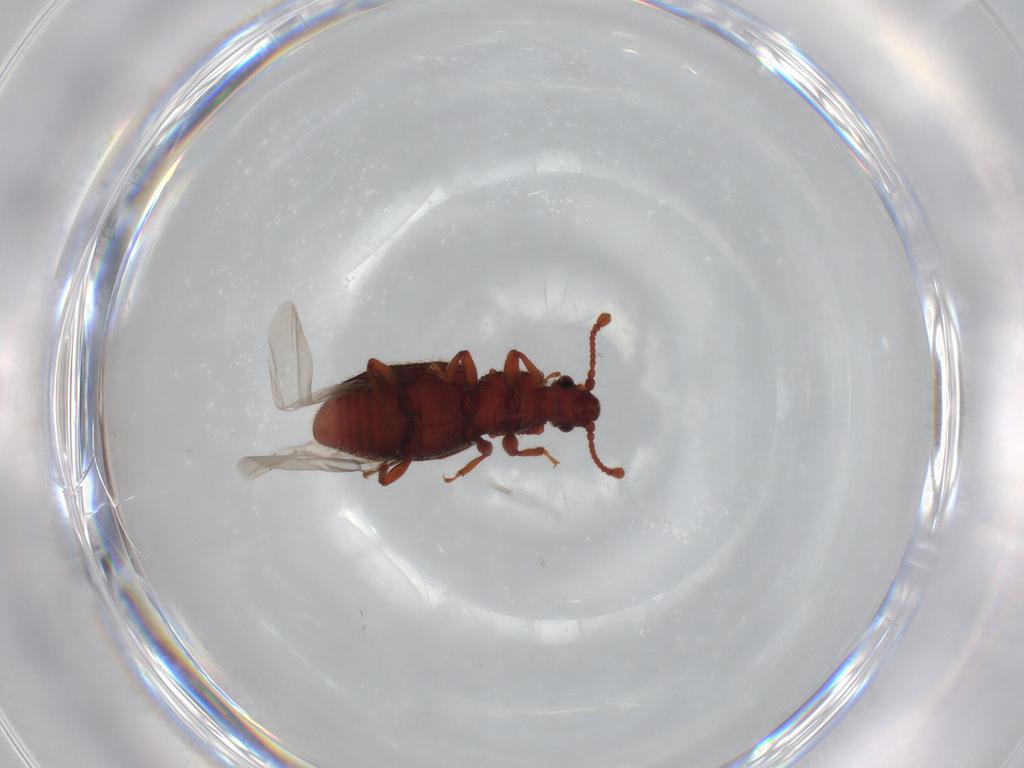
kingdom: Animalia
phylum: Arthropoda
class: Insecta
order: Coleoptera
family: Monotomidae
